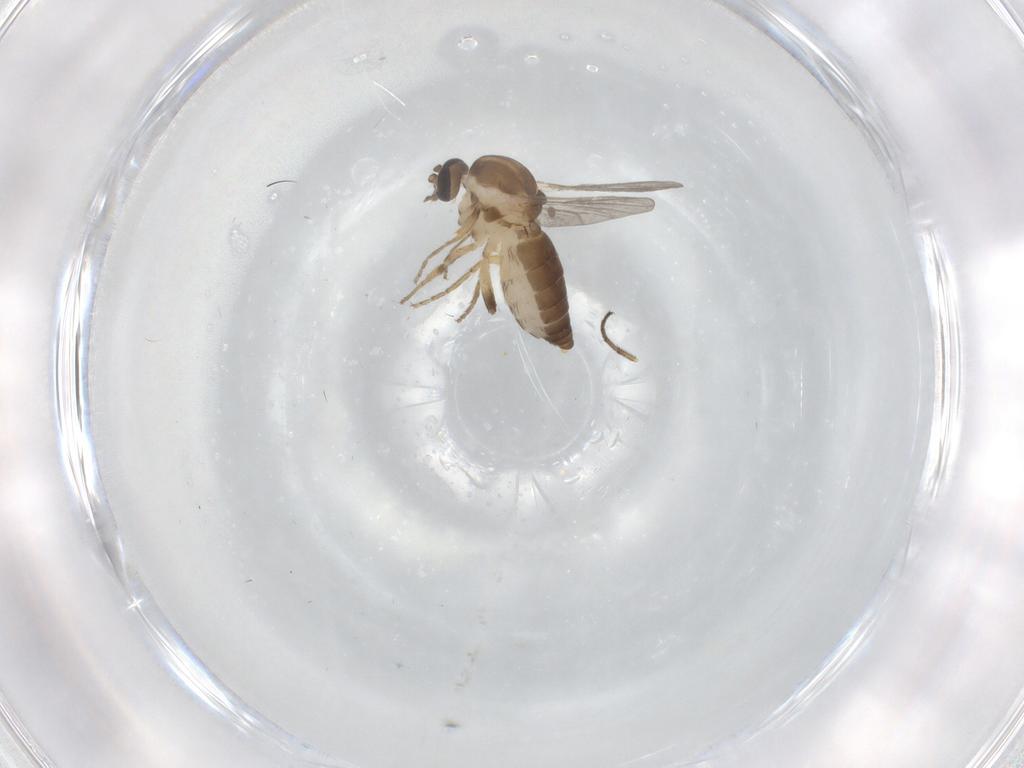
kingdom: Animalia
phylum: Arthropoda
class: Insecta
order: Diptera
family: Ceratopogonidae
